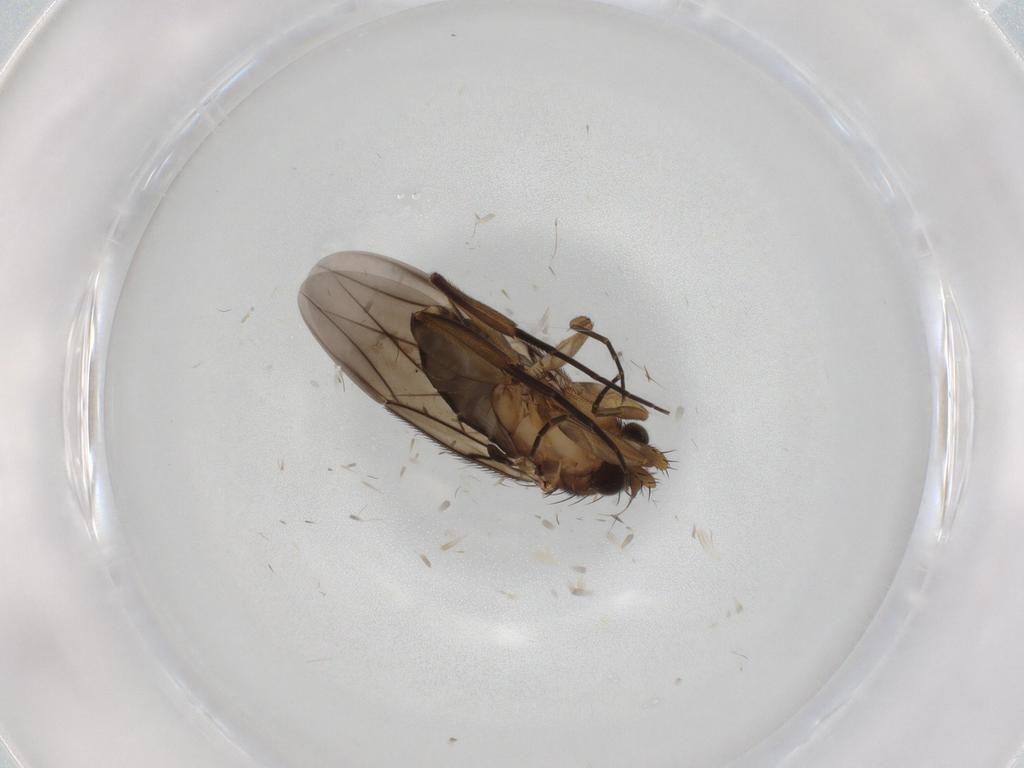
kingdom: Animalia
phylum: Arthropoda
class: Insecta
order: Diptera
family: Phoridae
